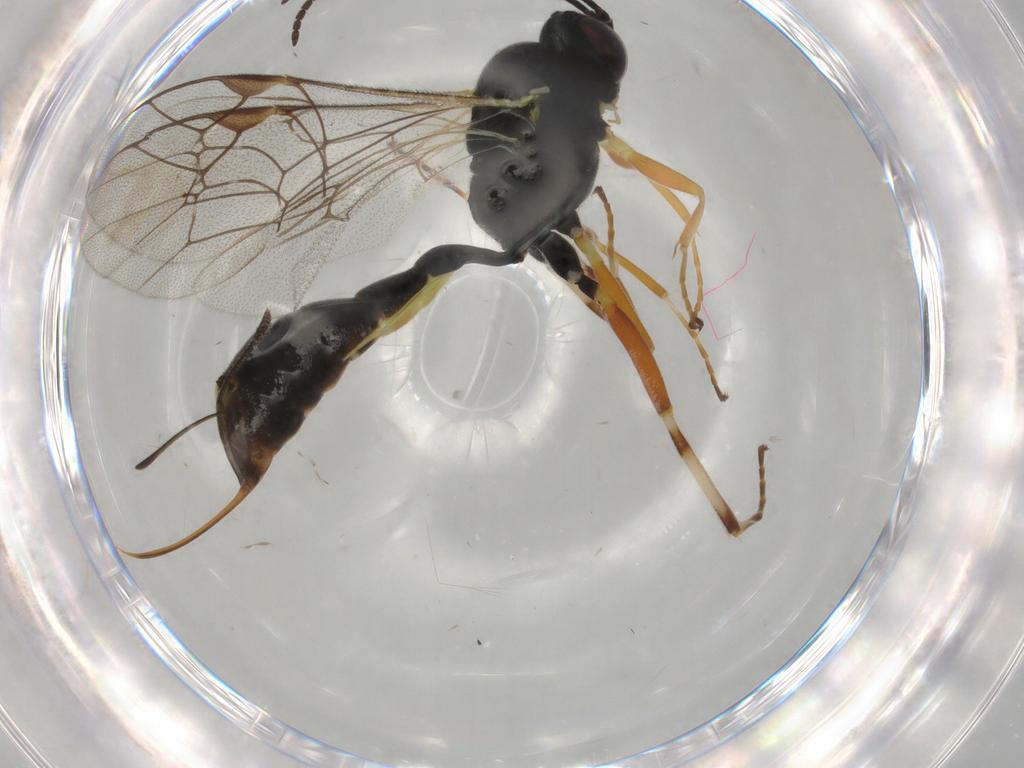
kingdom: Animalia
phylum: Arthropoda
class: Insecta
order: Hymenoptera
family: Ichneumonidae
